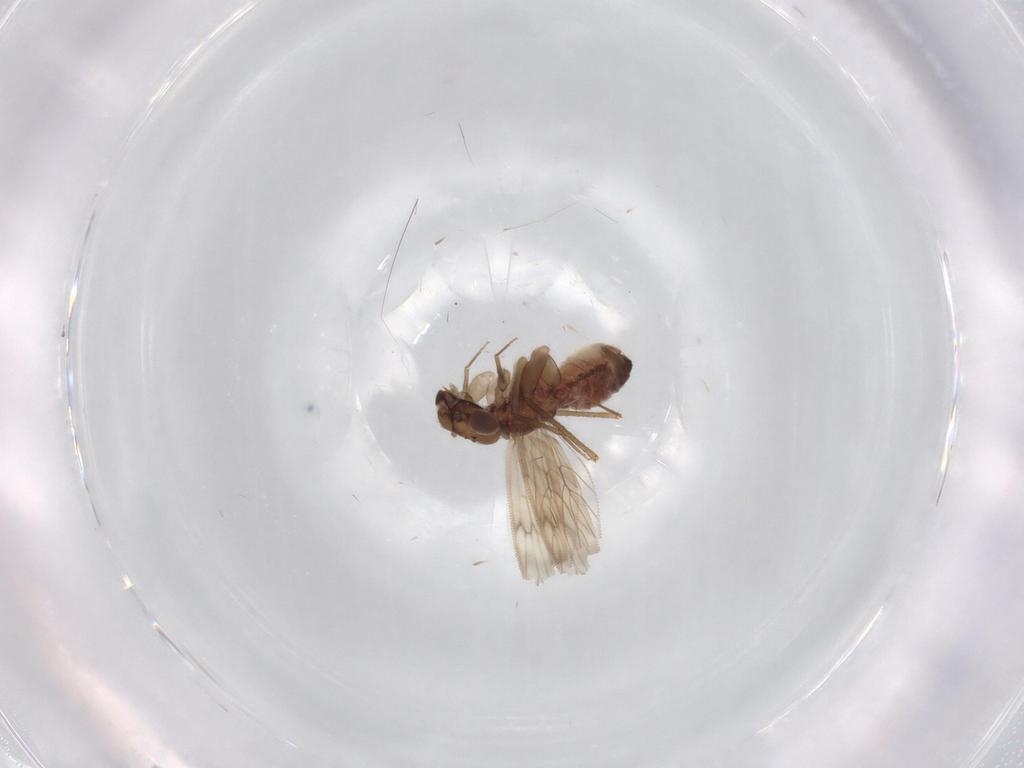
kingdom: Animalia
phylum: Arthropoda
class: Insecta
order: Psocodea
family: Lepidopsocidae
